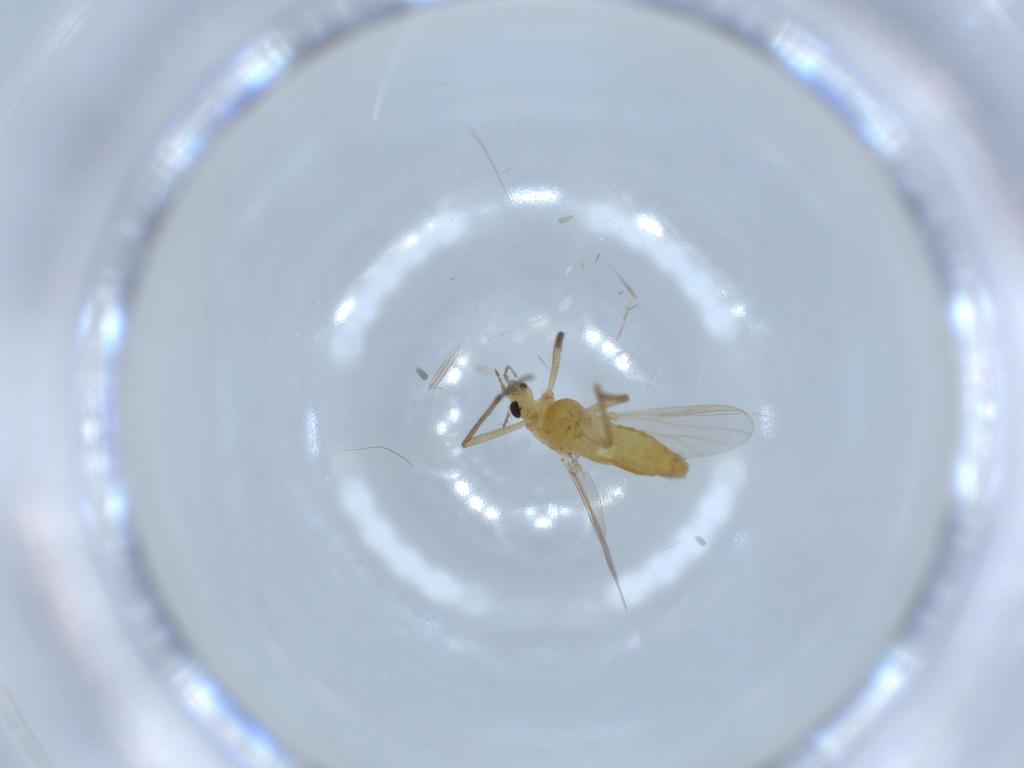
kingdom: Animalia
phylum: Arthropoda
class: Insecta
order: Diptera
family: Chironomidae
